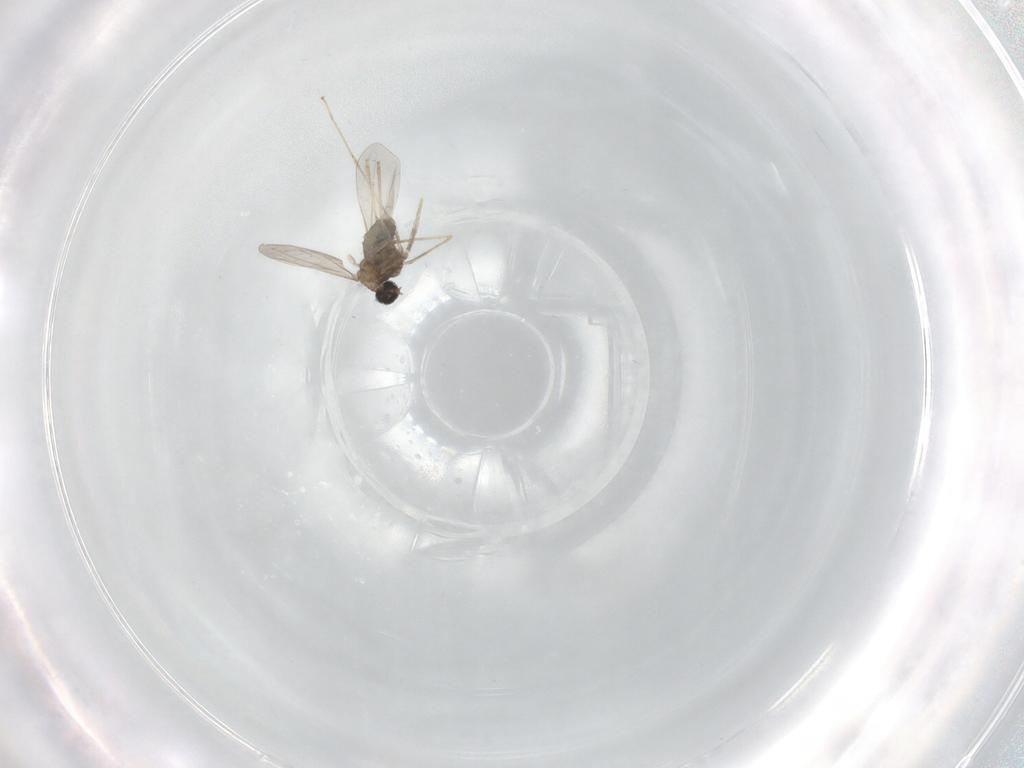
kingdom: Animalia
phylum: Arthropoda
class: Insecta
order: Diptera
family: Cecidomyiidae
